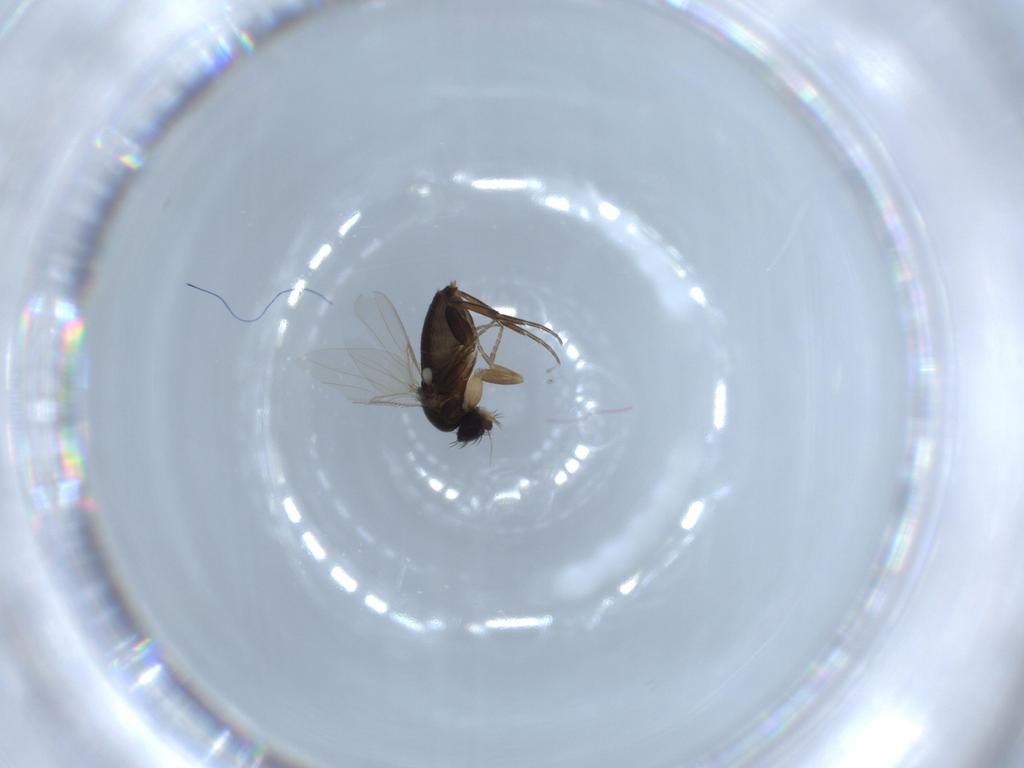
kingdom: Animalia
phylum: Arthropoda
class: Insecta
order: Diptera
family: Phoridae
